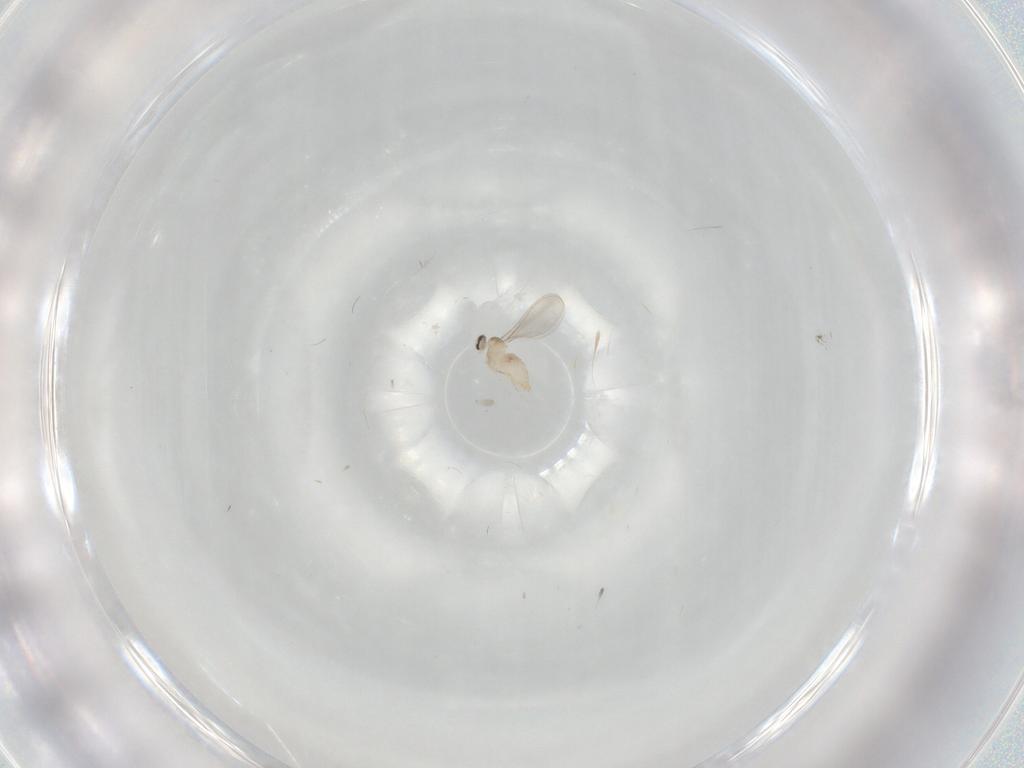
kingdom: Animalia
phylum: Arthropoda
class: Insecta
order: Diptera
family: Cecidomyiidae
